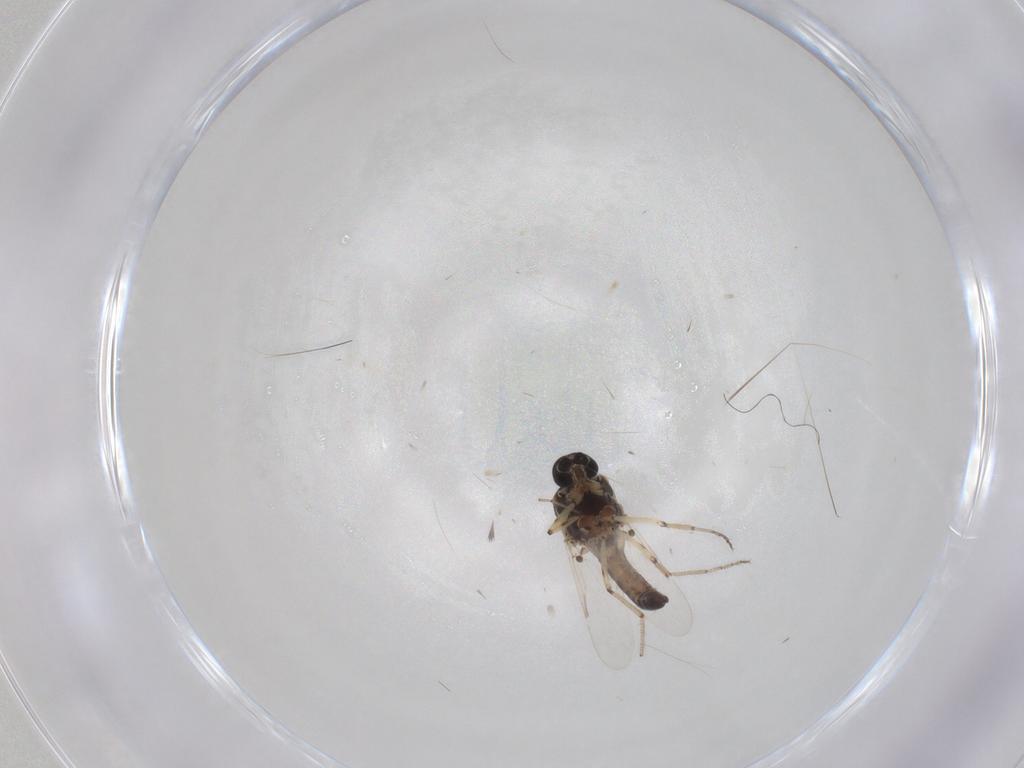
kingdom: Animalia
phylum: Arthropoda
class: Insecta
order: Diptera
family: Ceratopogonidae
